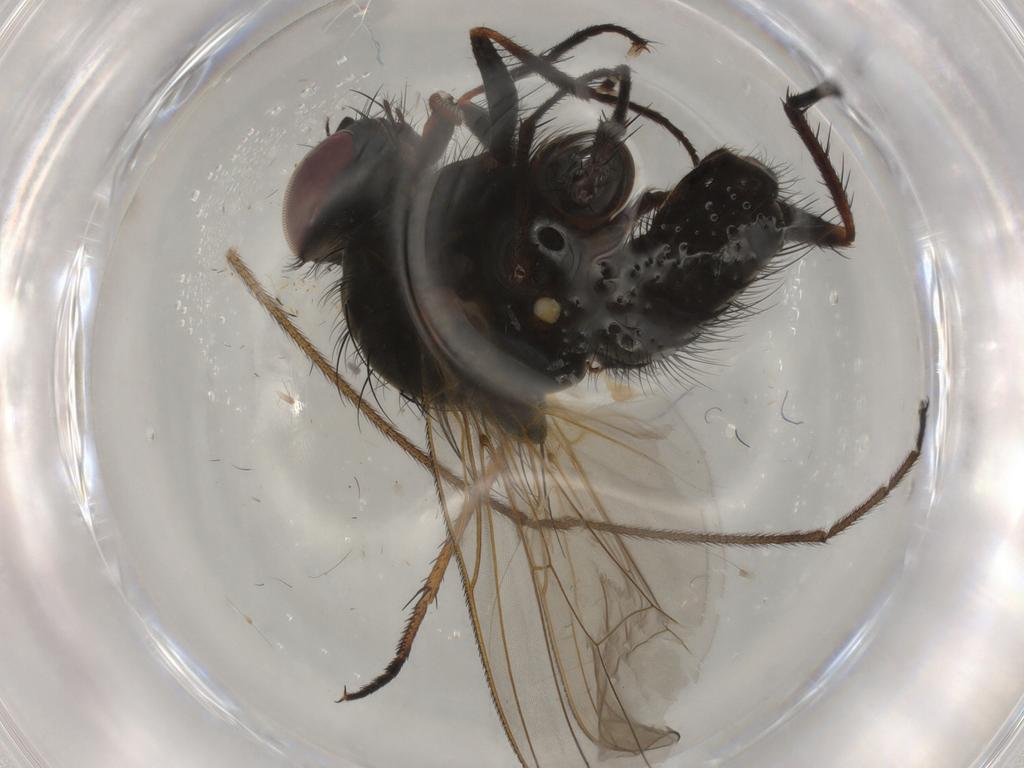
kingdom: Animalia
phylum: Arthropoda
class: Insecta
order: Diptera
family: Anthomyiidae
